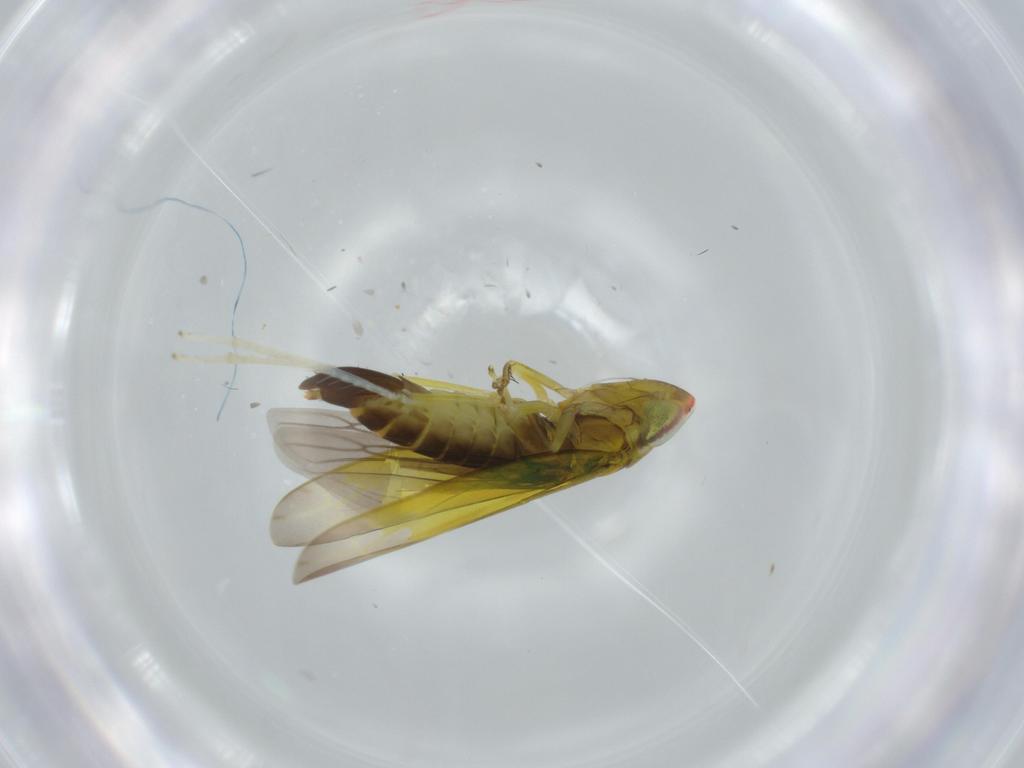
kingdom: Animalia
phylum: Arthropoda
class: Insecta
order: Hemiptera
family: Cicadellidae
